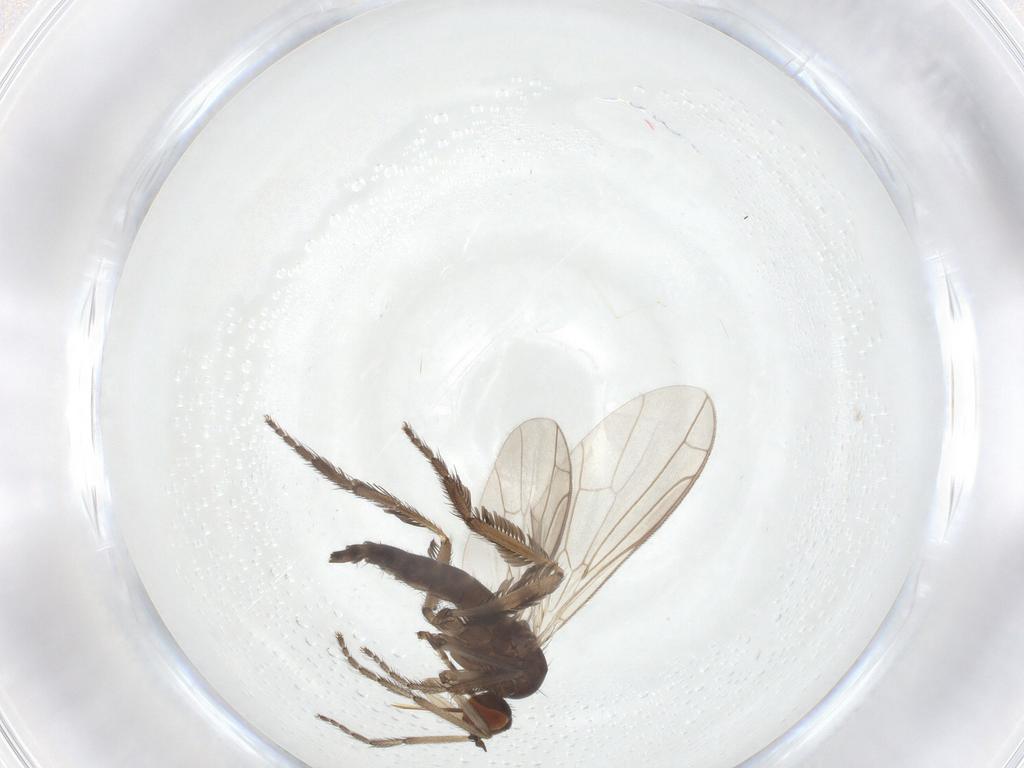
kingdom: Animalia
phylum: Arthropoda
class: Insecta
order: Diptera
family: Empididae
